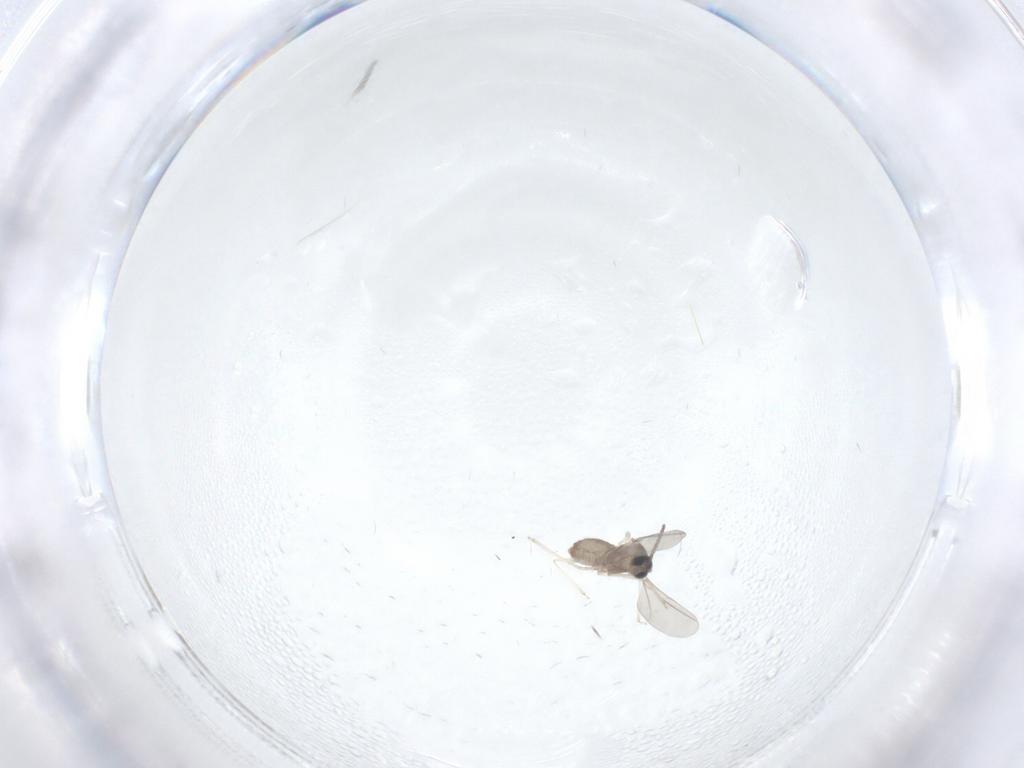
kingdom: Animalia
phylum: Arthropoda
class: Insecta
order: Diptera
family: Cecidomyiidae
